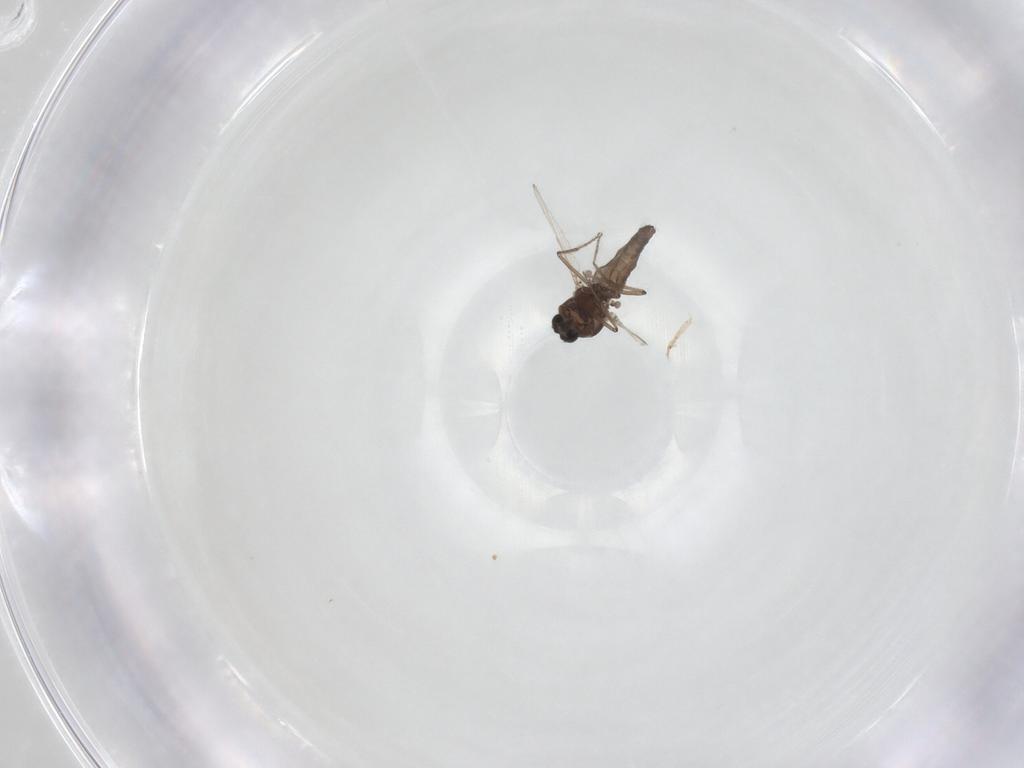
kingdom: Animalia
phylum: Arthropoda
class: Insecta
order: Diptera
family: Ceratopogonidae
